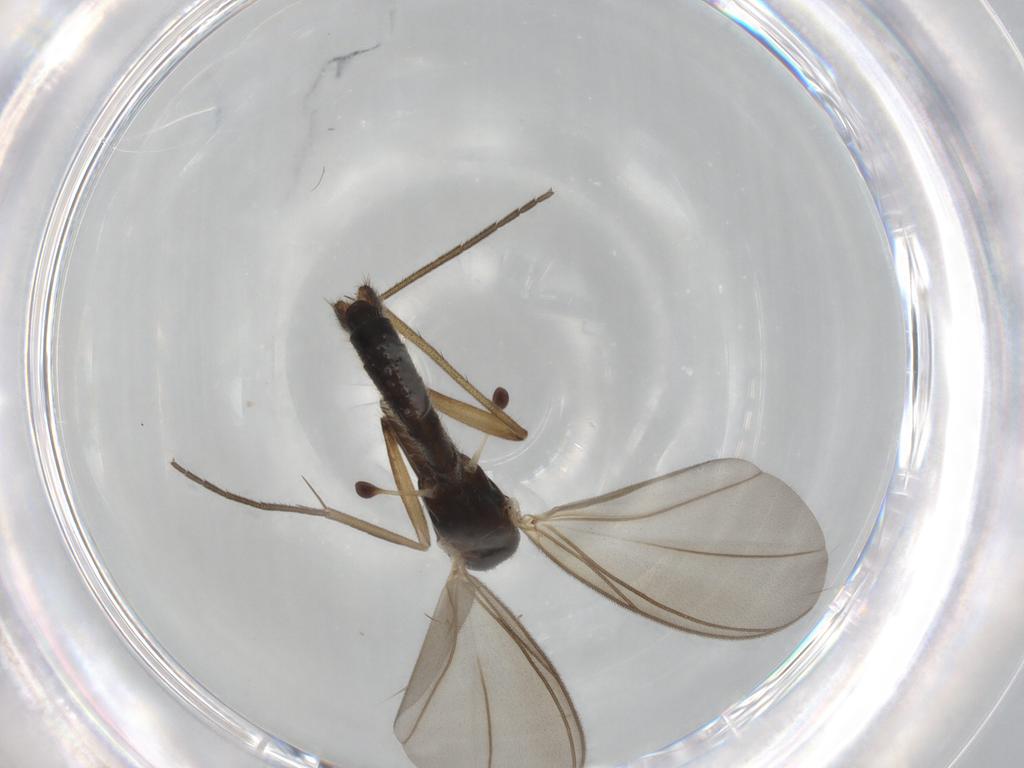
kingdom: Animalia
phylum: Arthropoda
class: Insecta
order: Diptera
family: Mycetophilidae
